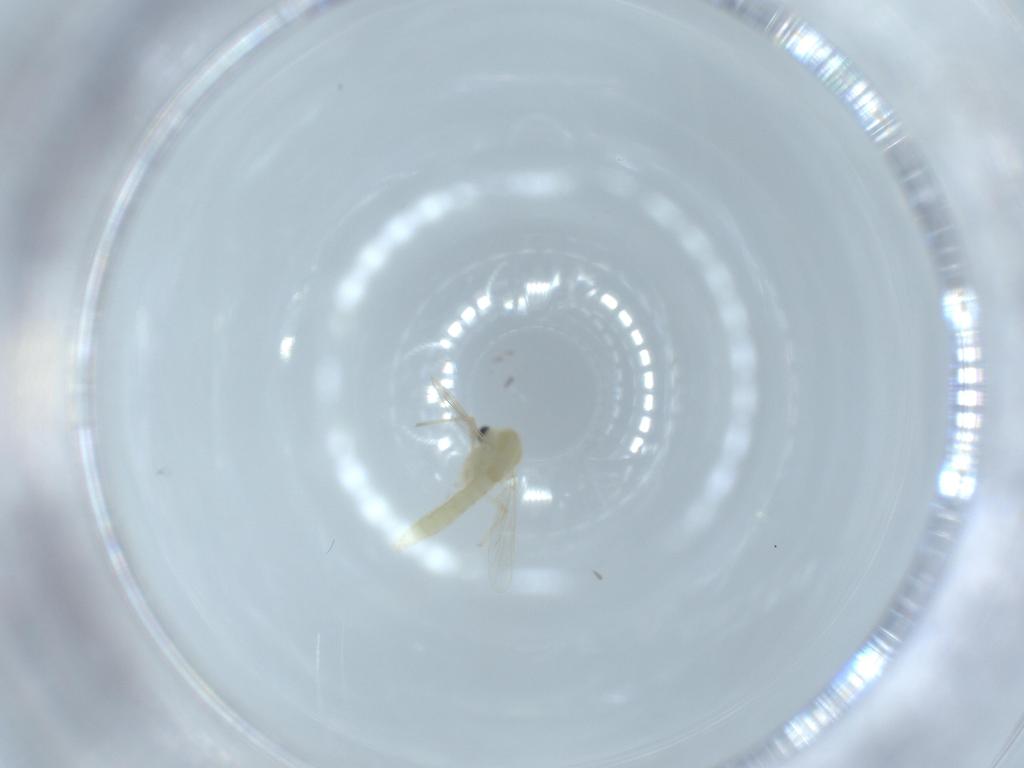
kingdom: Animalia
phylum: Arthropoda
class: Insecta
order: Diptera
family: Chironomidae
